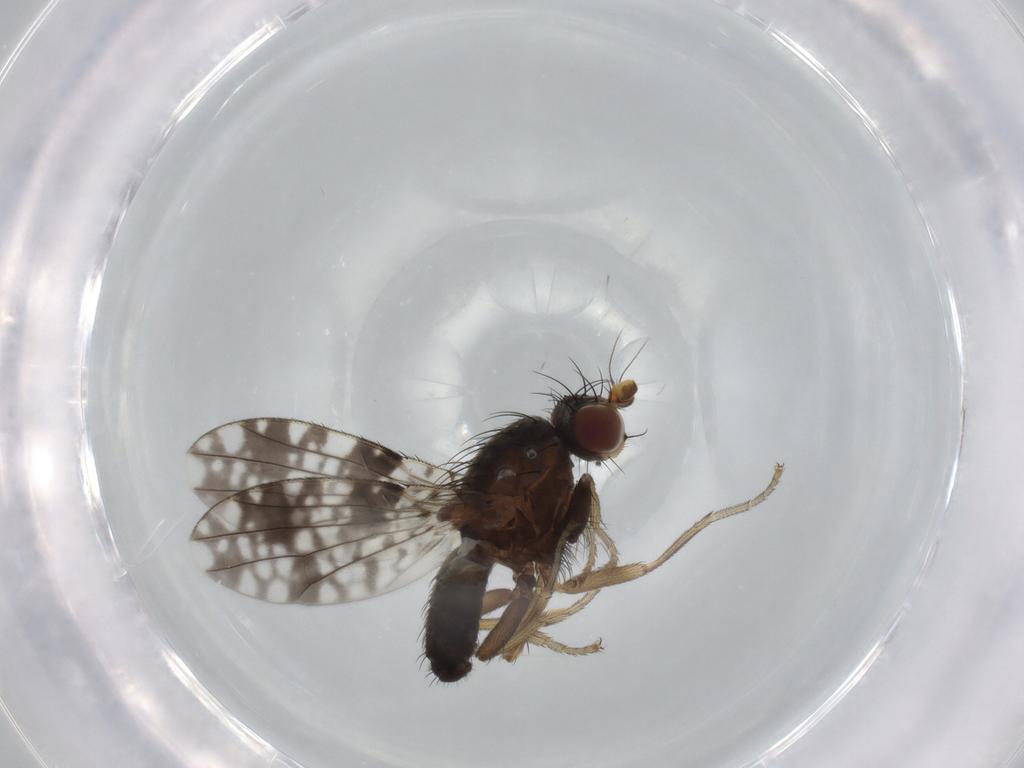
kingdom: Animalia
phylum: Arthropoda
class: Insecta
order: Diptera
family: Tephritidae
